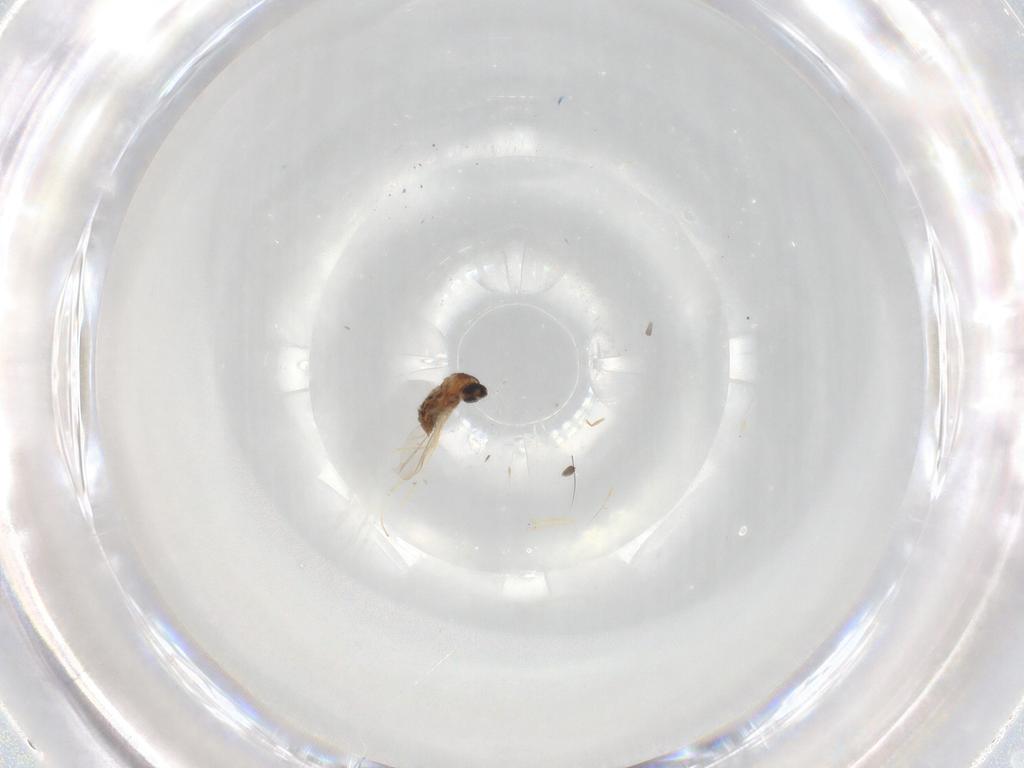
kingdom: Animalia
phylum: Arthropoda
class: Insecta
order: Diptera
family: Cecidomyiidae
